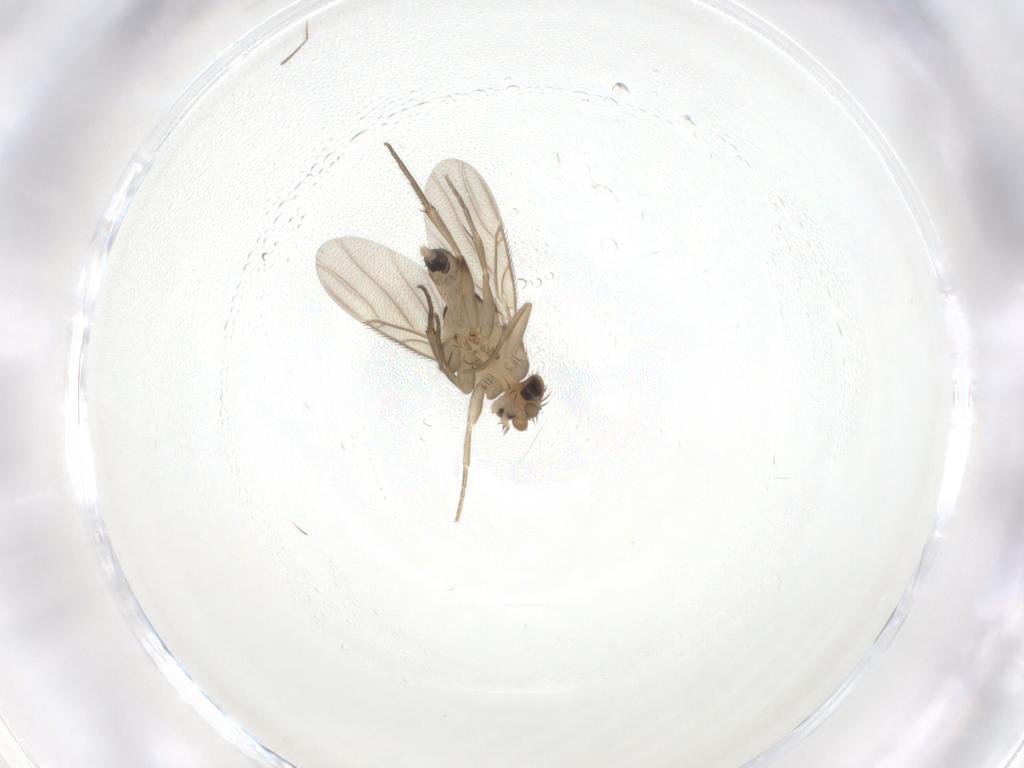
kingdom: Animalia
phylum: Arthropoda
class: Insecta
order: Diptera
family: Phoridae
